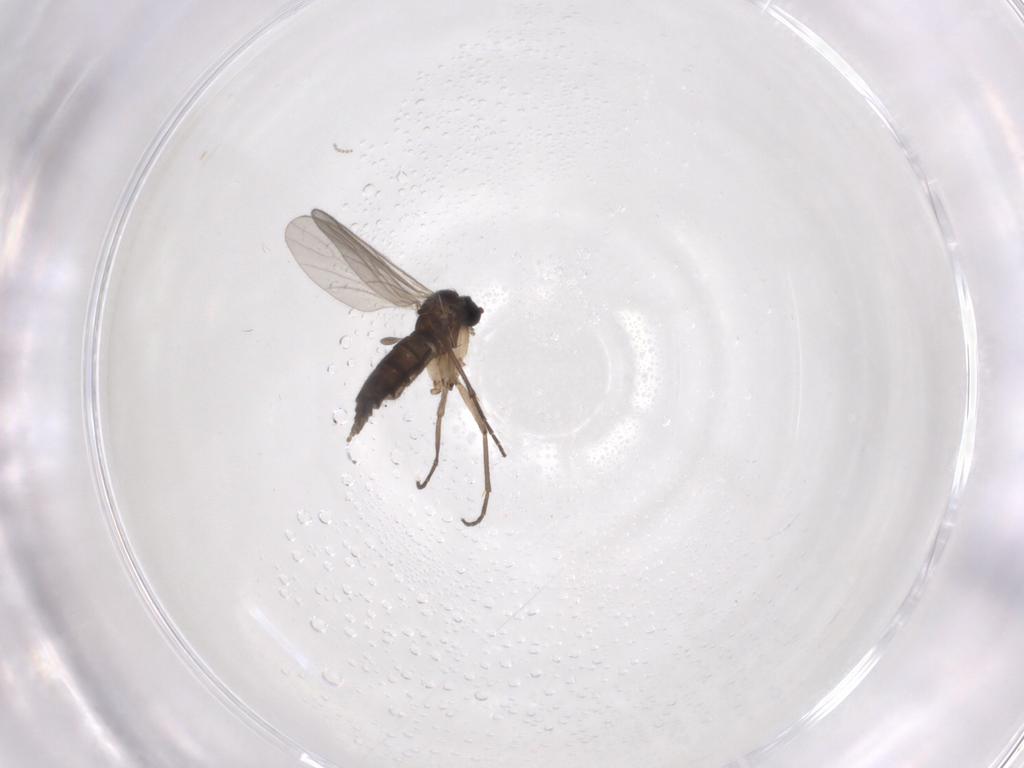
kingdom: Animalia
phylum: Arthropoda
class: Insecta
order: Diptera
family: Sciaridae
